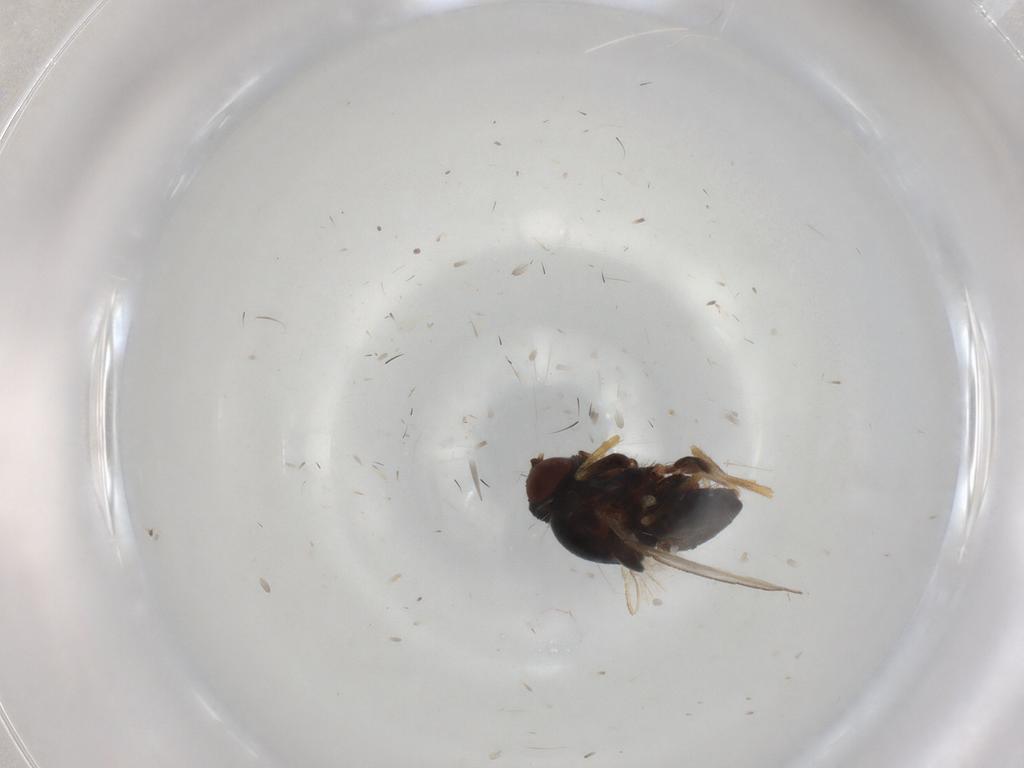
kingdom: Animalia
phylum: Arthropoda
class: Insecta
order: Diptera
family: Milichiidae
